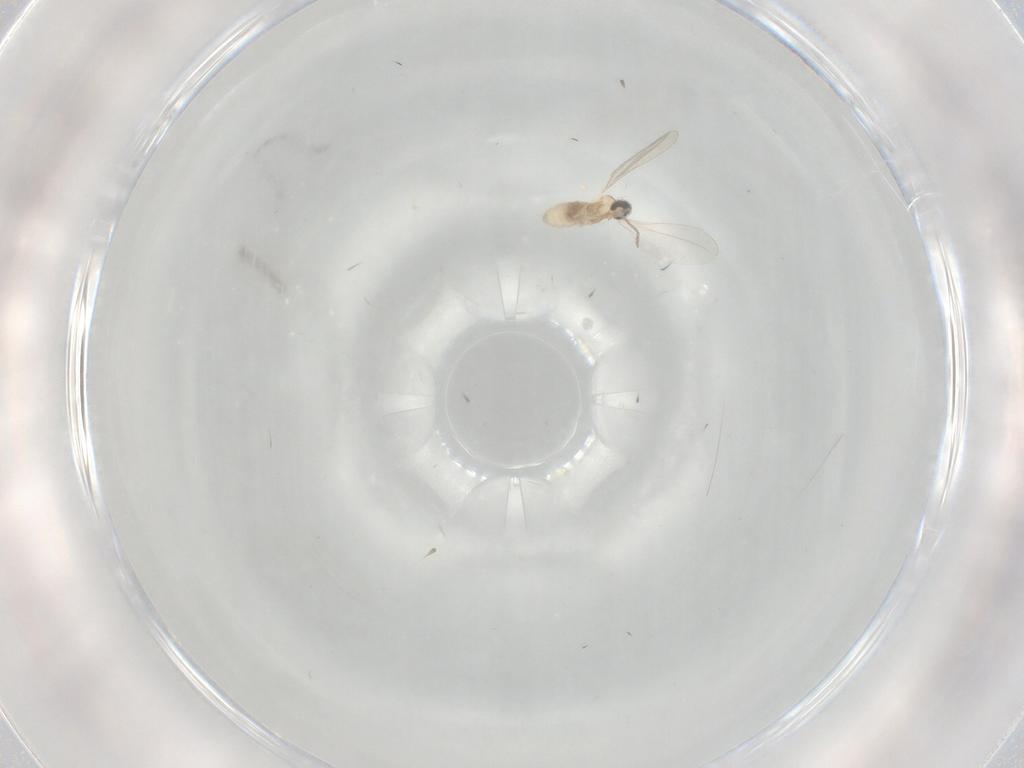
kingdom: Animalia
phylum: Arthropoda
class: Insecta
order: Diptera
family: Cecidomyiidae
